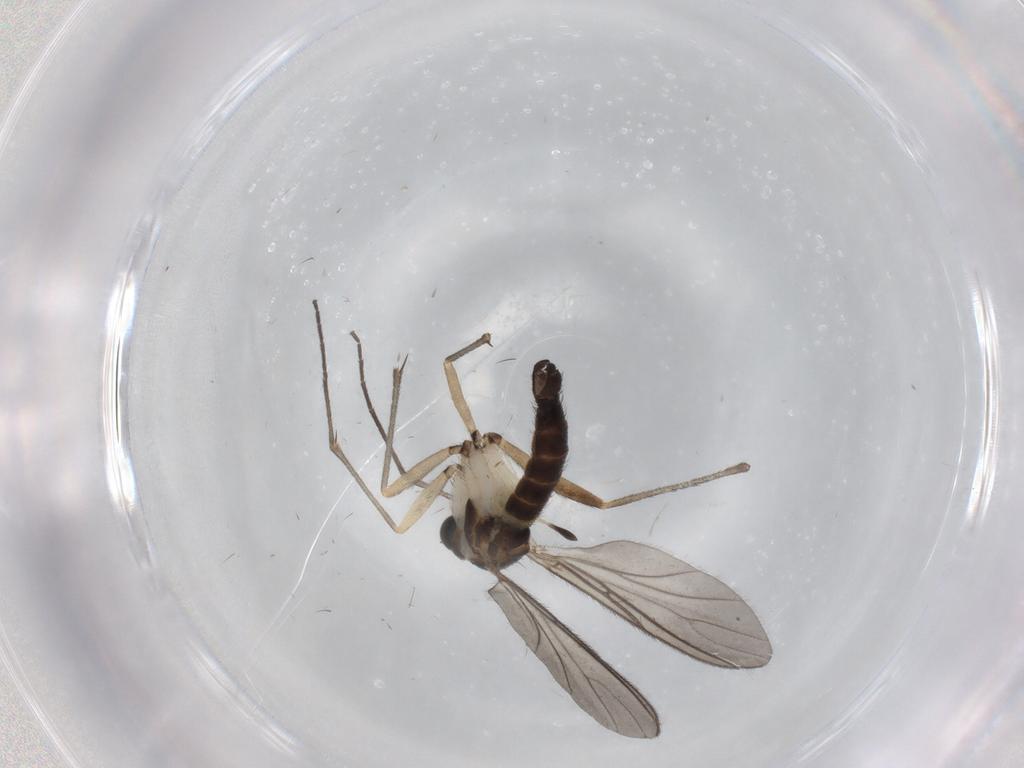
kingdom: Animalia
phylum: Arthropoda
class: Insecta
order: Diptera
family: Sciaridae
